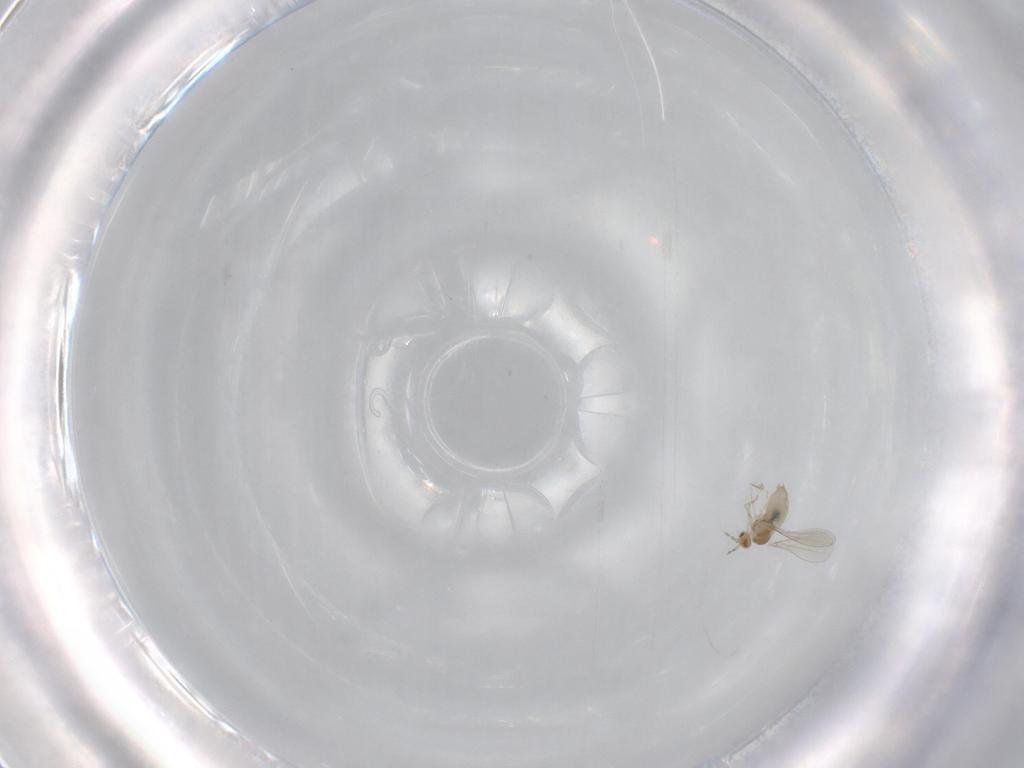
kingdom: Animalia
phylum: Arthropoda
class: Insecta
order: Diptera
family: Cecidomyiidae
